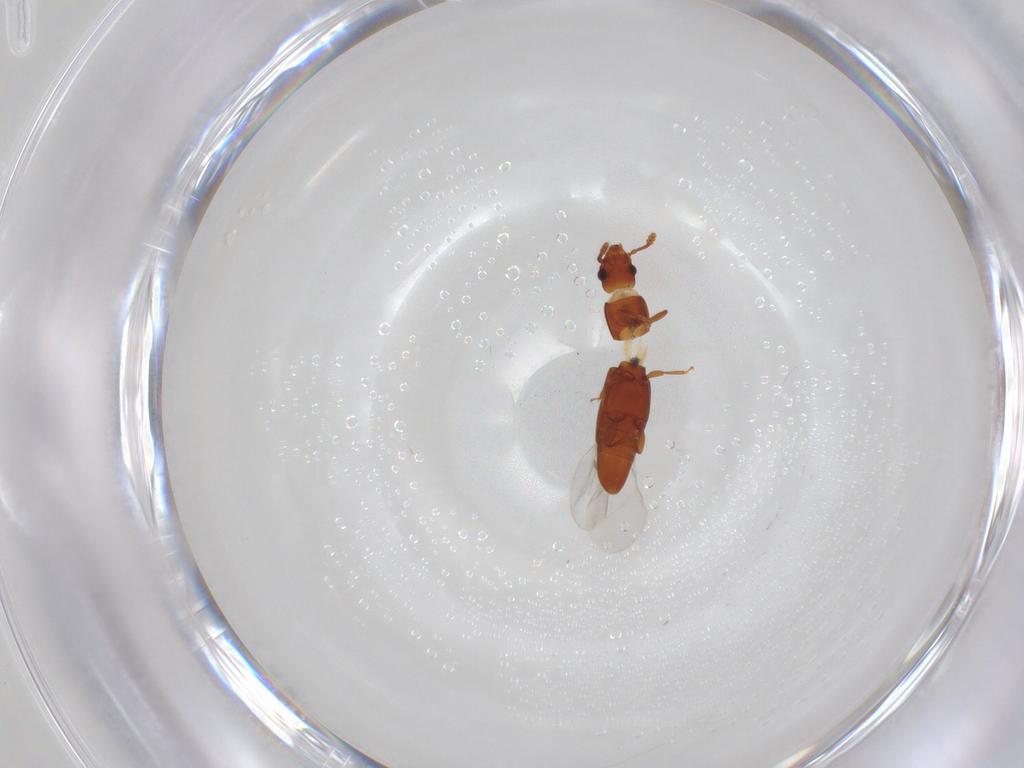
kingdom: Animalia
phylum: Arthropoda
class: Insecta
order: Coleoptera
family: Smicripidae
